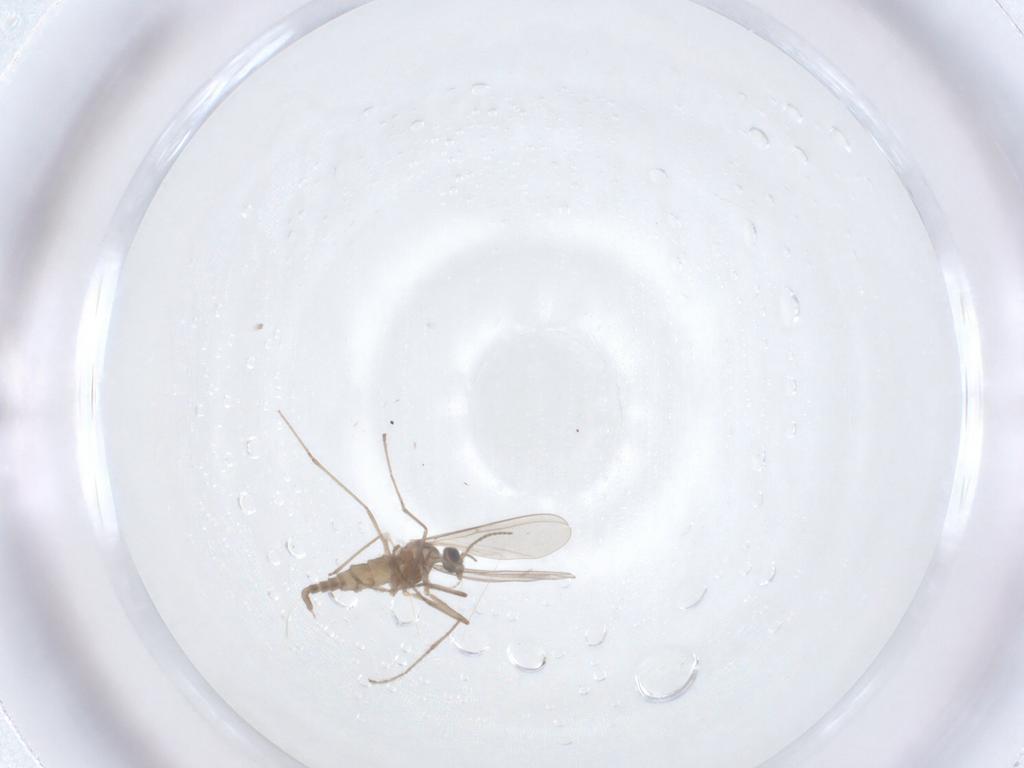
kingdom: Animalia
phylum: Arthropoda
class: Insecta
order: Diptera
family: Cecidomyiidae
